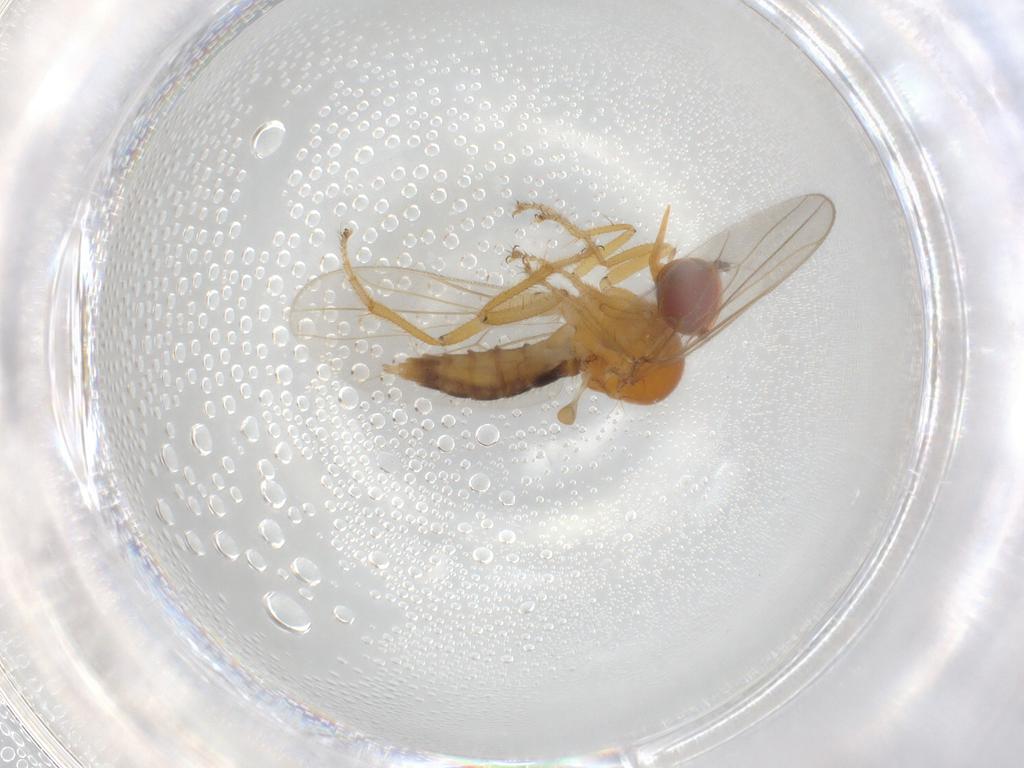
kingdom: Animalia
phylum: Arthropoda
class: Insecta
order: Diptera
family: Hybotidae
